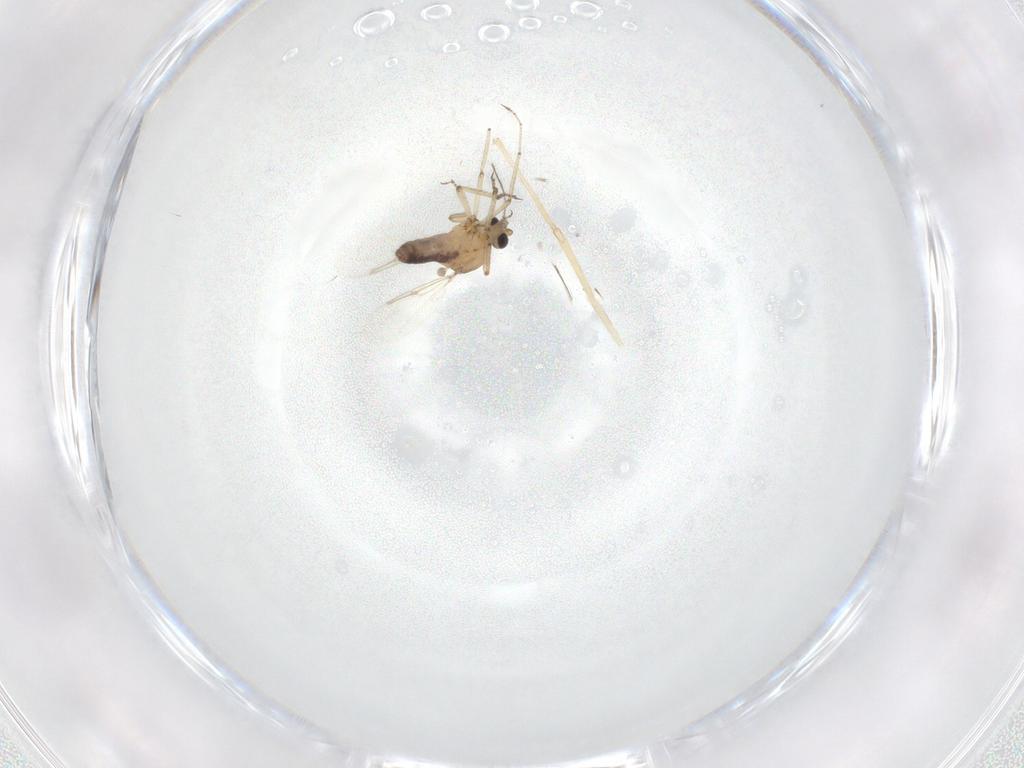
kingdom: Animalia
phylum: Arthropoda
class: Insecta
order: Diptera
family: Ceratopogonidae
